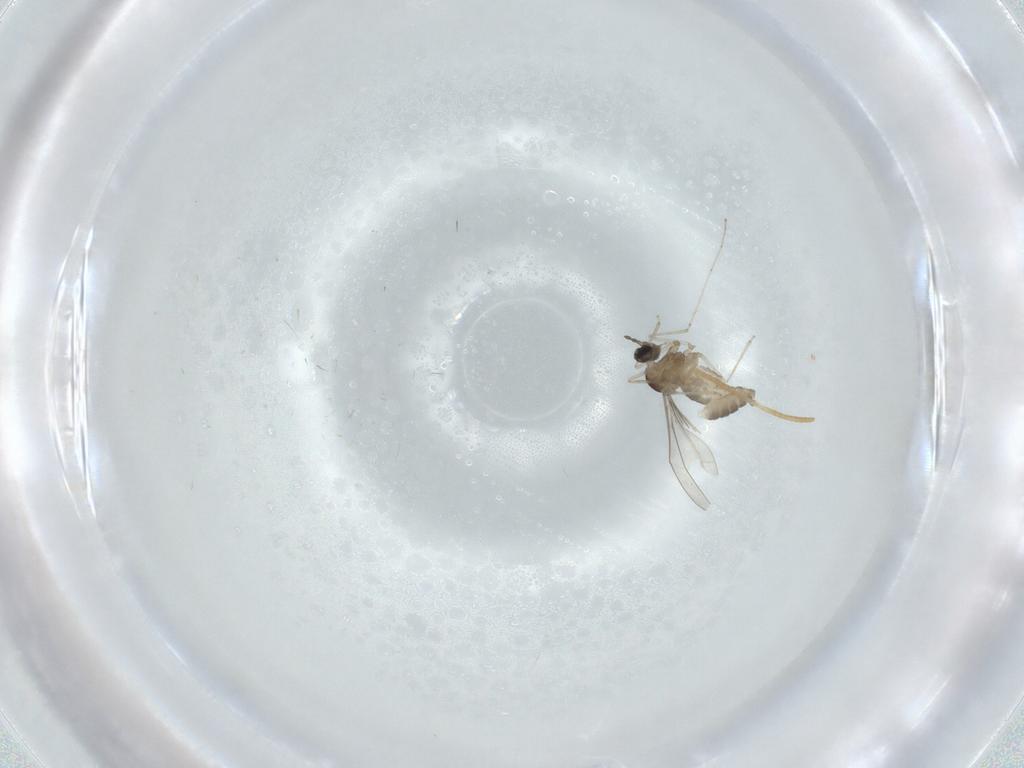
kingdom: Animalia
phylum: Arthropoda
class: Insecta
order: Diptera
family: Cecidomyiidae
